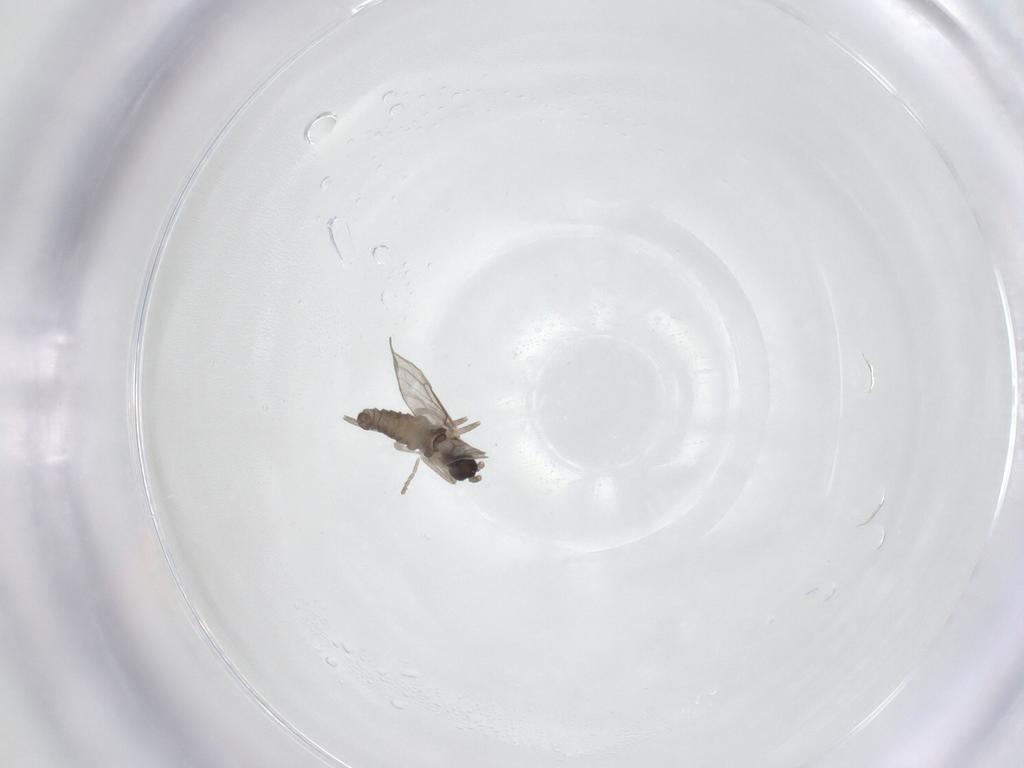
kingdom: Animalia
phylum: Arthropoda
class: Insecta
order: Diptera
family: Cecidomyiidae
